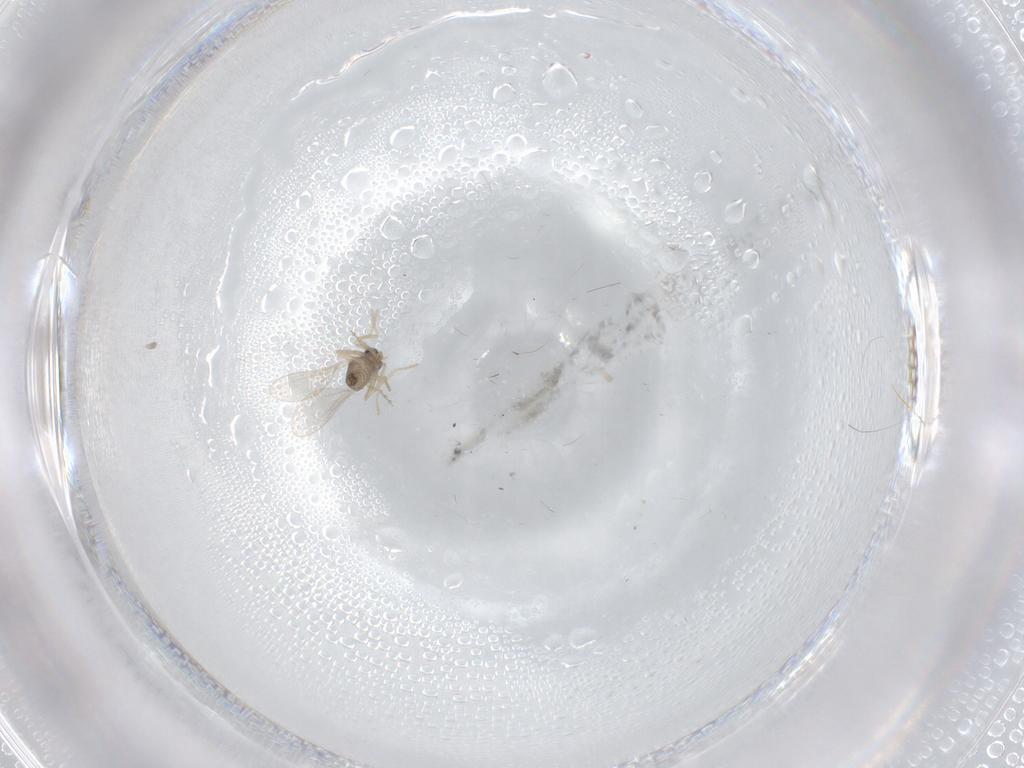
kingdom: Animalia
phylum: Arthropoda
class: Insecta
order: Diptera
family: Cecidomyiidae
